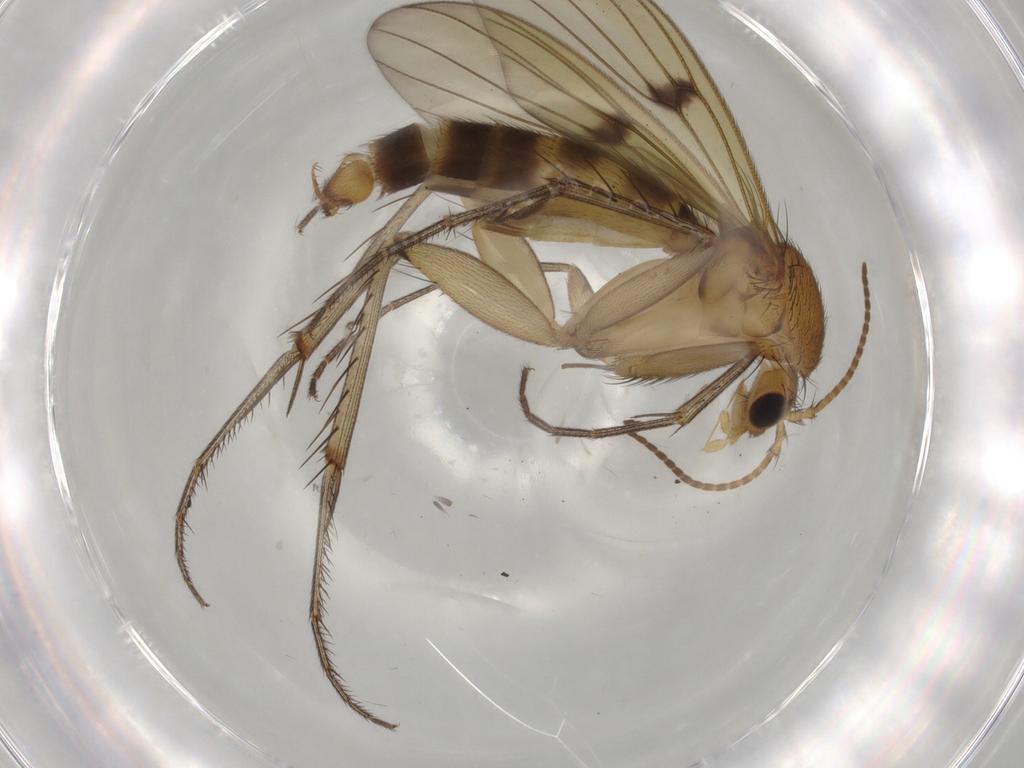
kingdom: Animalia
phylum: Arthropoda
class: Insecta
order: Diptera
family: Mycetophilidae
